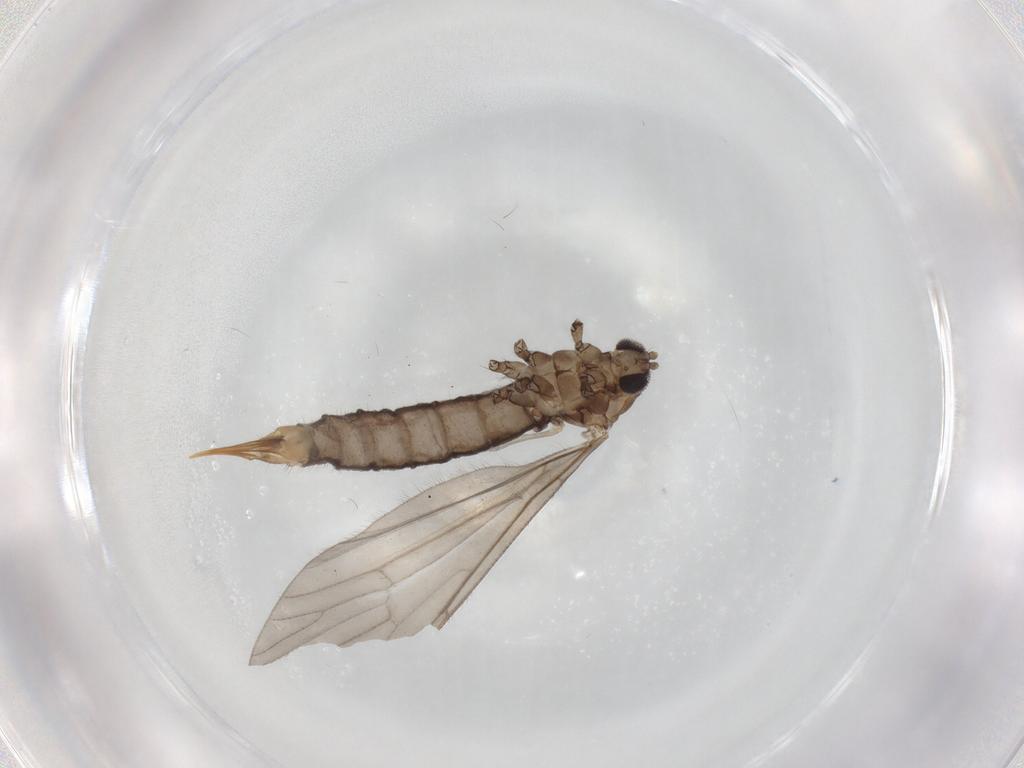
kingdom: Animalia
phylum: Arthropoda
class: Insecta
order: Diptera
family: Limoniidae
